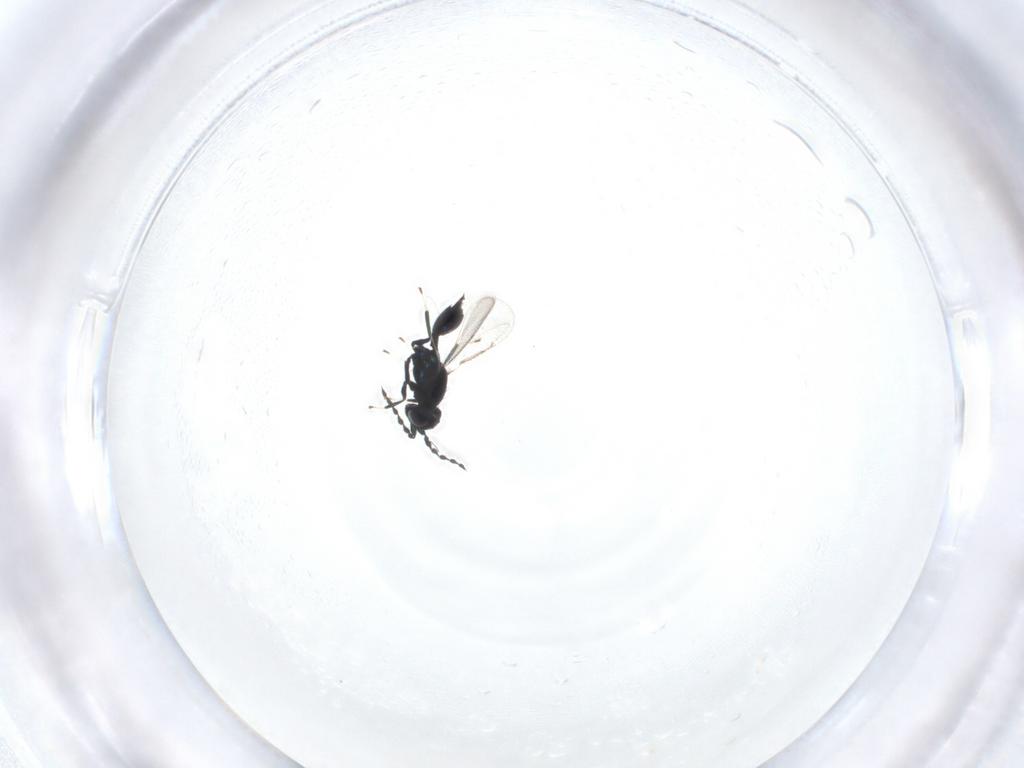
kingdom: Animalia
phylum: Arthropoda
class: Insecta
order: Hymenoptera
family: Eulophidae
